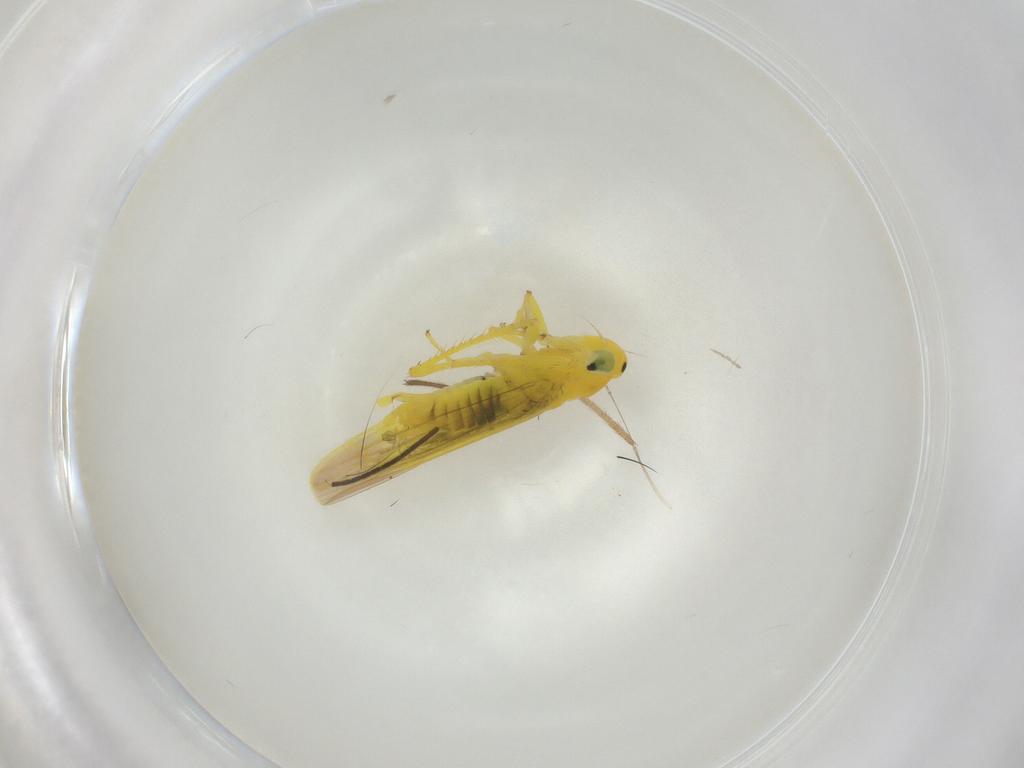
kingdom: Animalia
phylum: Arthropoda
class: Insecta
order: Hemiptera
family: Cicadellidae
